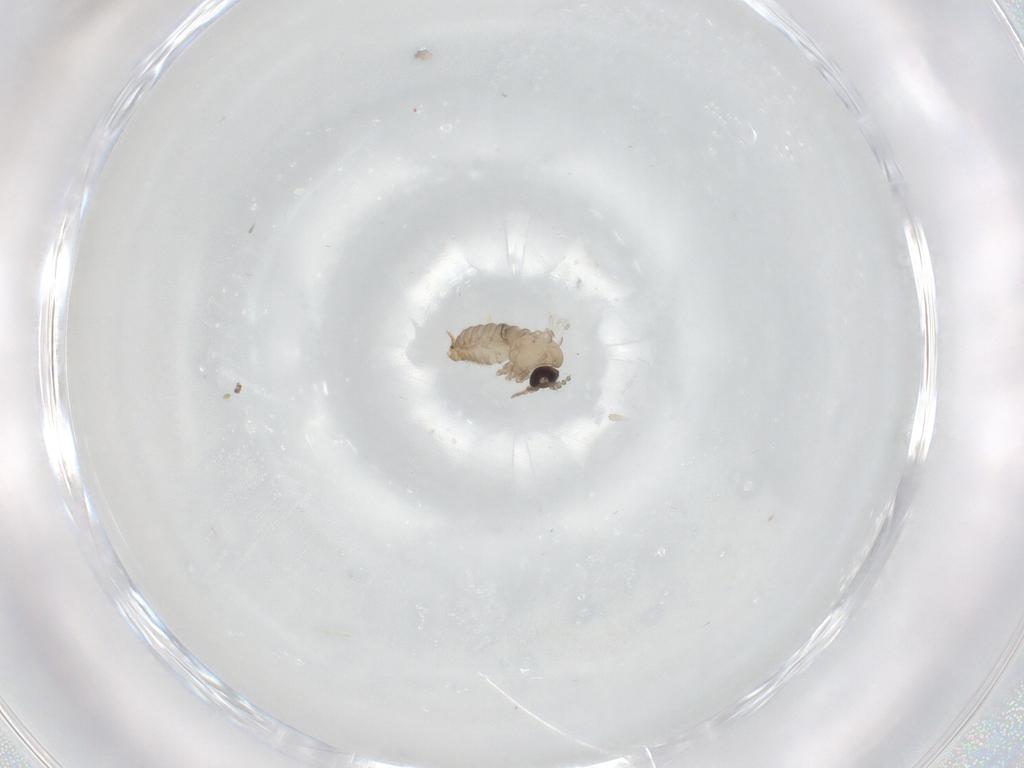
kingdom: Animalia
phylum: Arthropoda
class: Insecta
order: Diptera
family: Psychodidae
